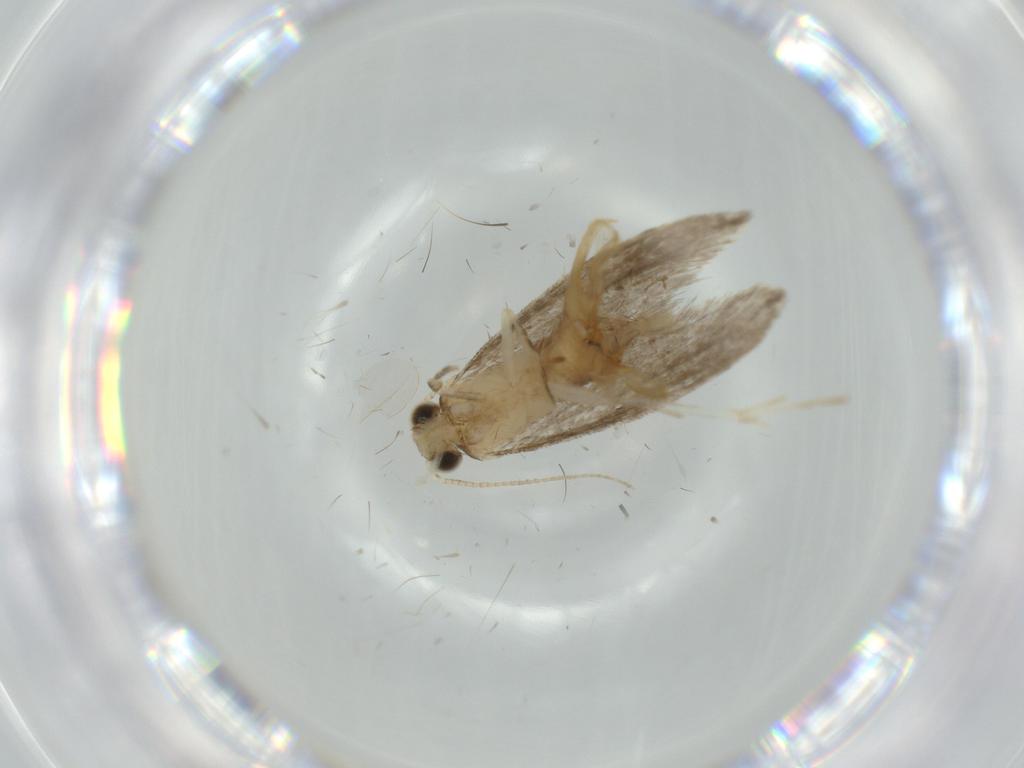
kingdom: Animalia
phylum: Arthropoda
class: Insecta
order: Lepidoptera
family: Tineidae
